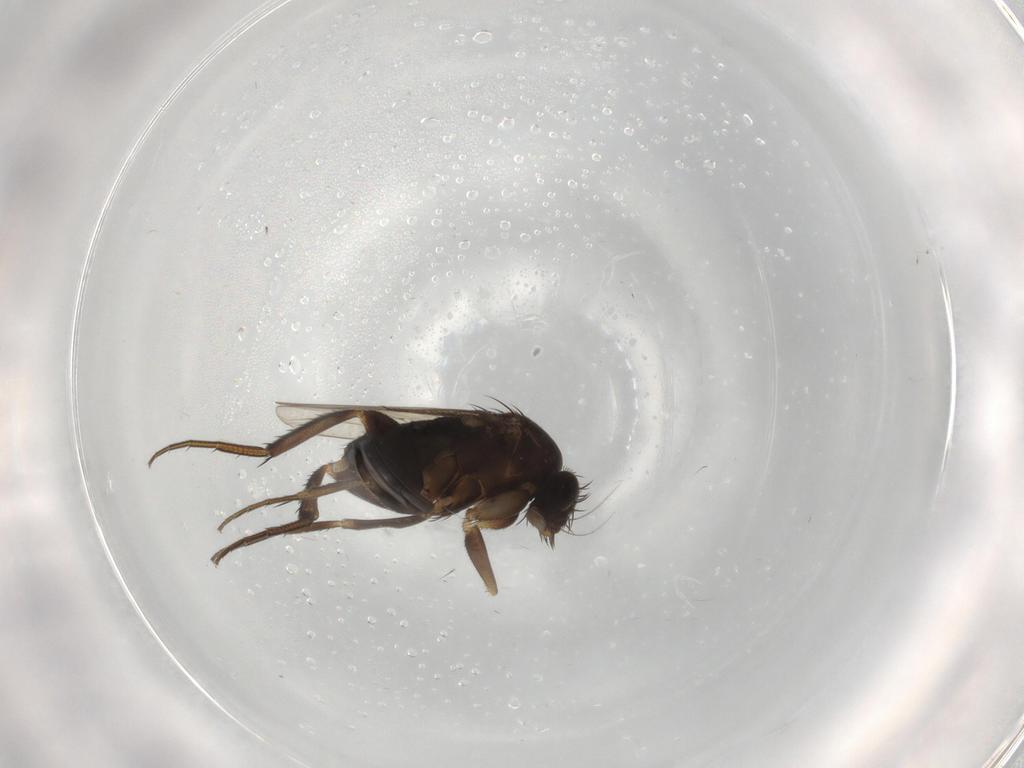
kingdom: Animalia
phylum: Arthropoda
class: Insecta
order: Diptera
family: Phoridae
